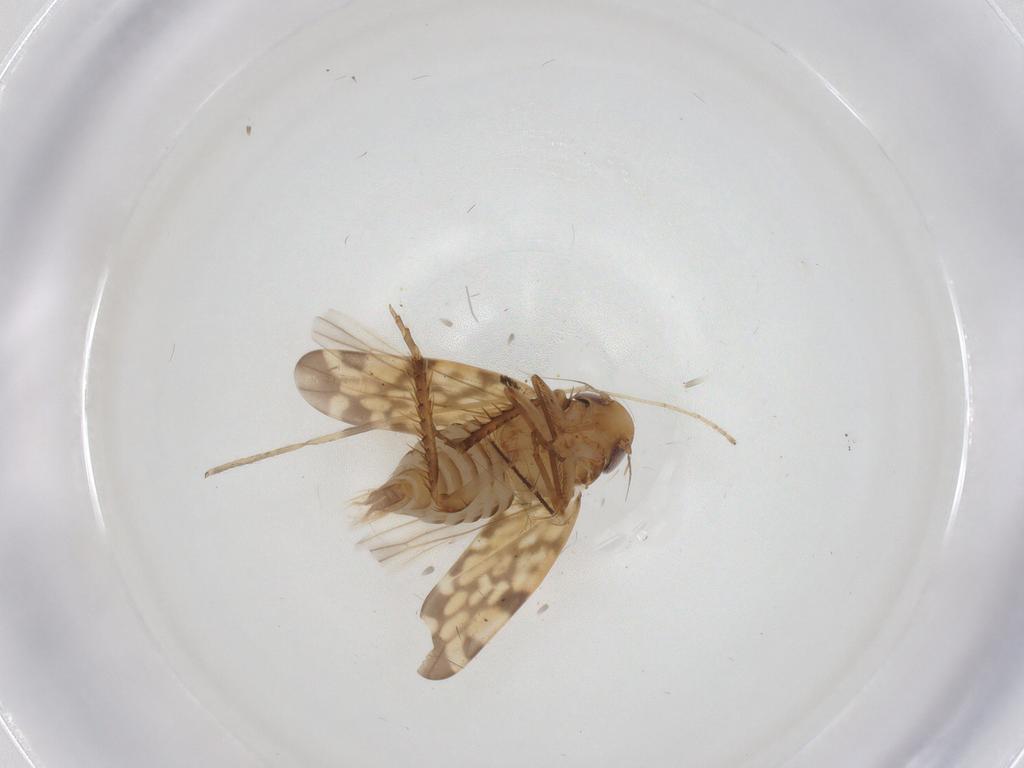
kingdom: Animalia
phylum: Arthropoda
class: Insecta
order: Hemiptera
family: Cicadellidae
